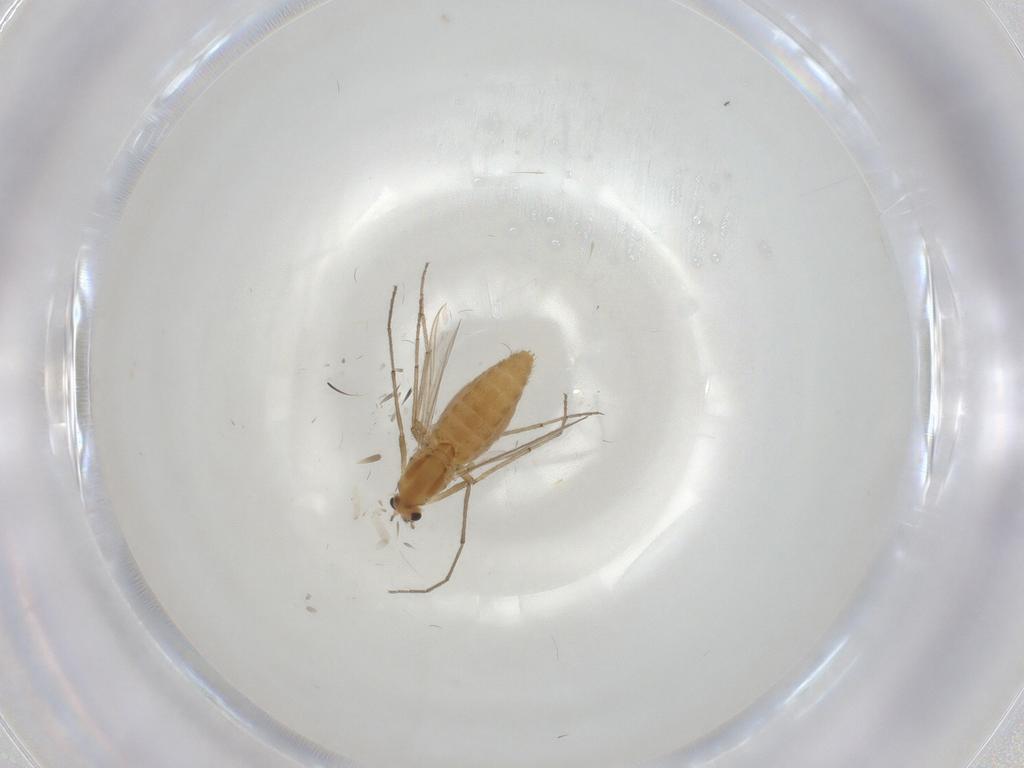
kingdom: Animalia
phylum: Arthropoda
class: Insecta
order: Diptera
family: Chironomidae
